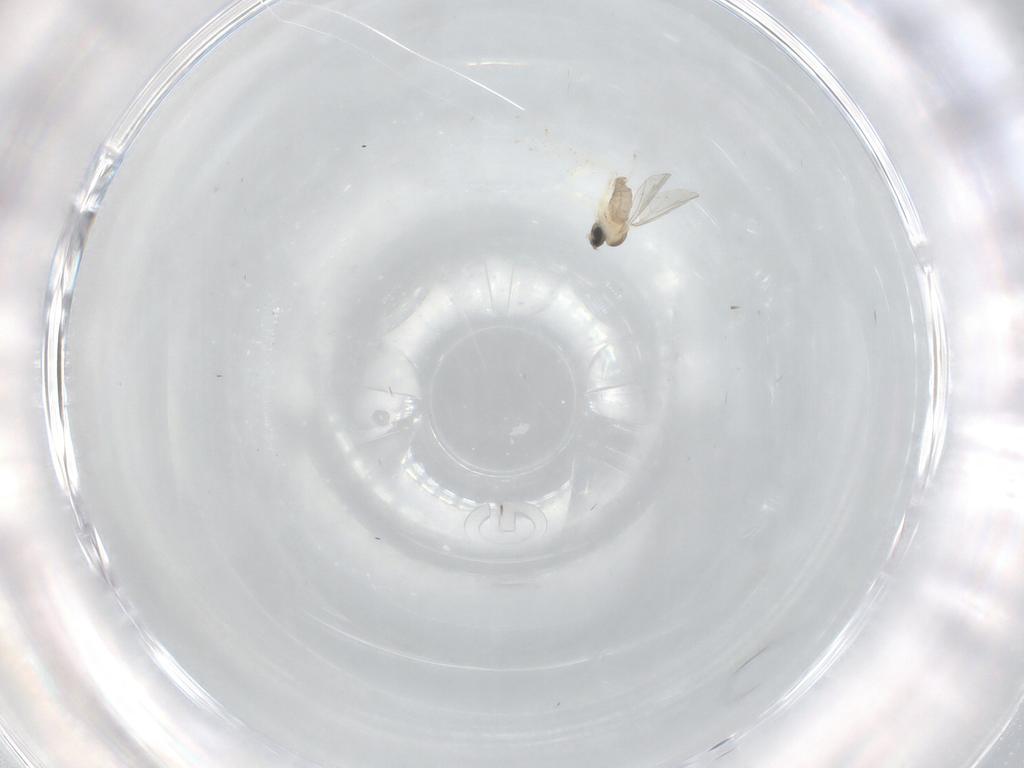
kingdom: Animalia
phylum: Arthropoda
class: Insecta
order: Diptera
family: Cecidomyiidae
